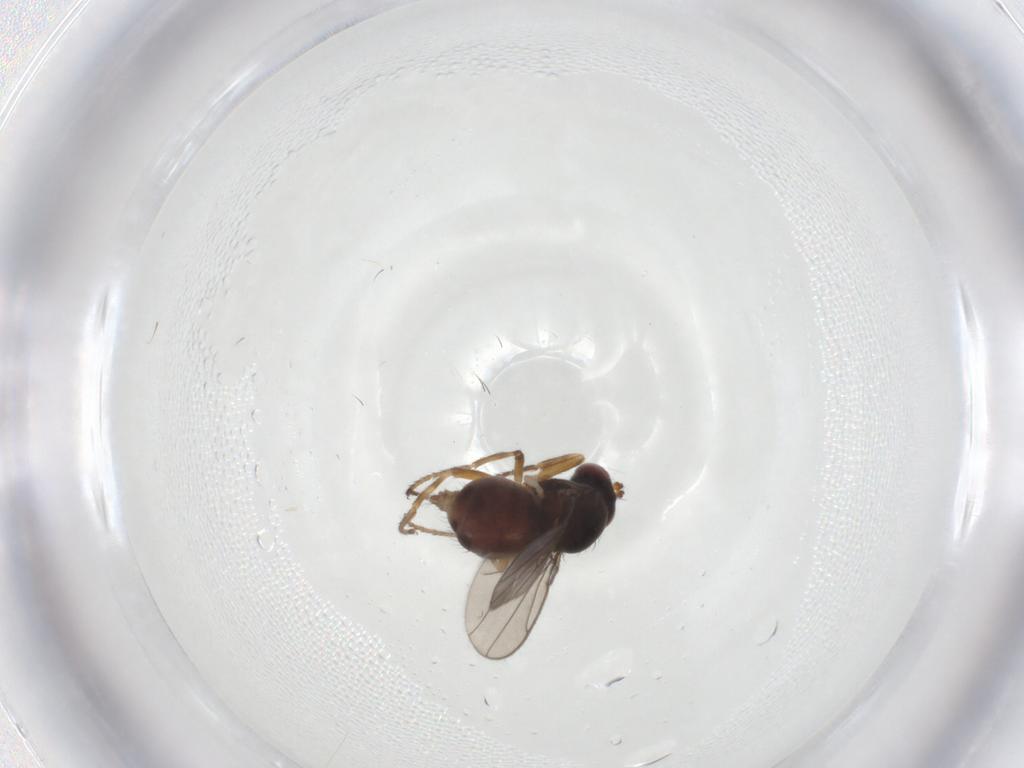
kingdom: Animalia
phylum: Arthropoda
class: Insecta
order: Diptera
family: Ephydridae
